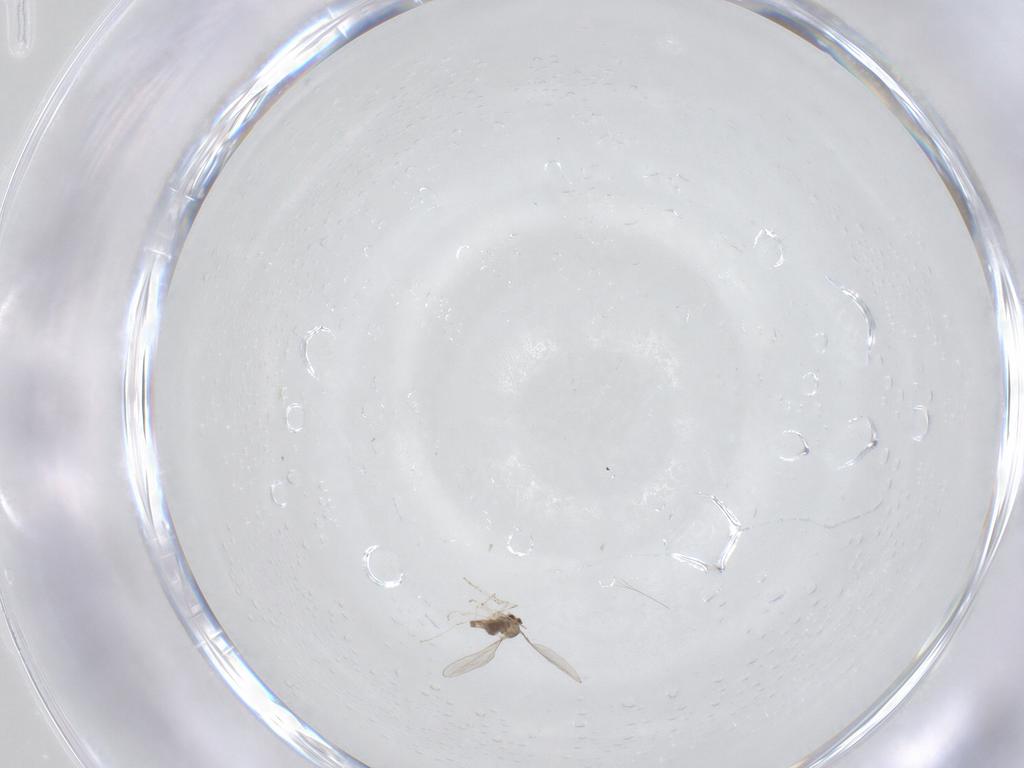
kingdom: Animalia
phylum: Arthropoda
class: Insecta
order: Diptera
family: Cecidomyiidae
